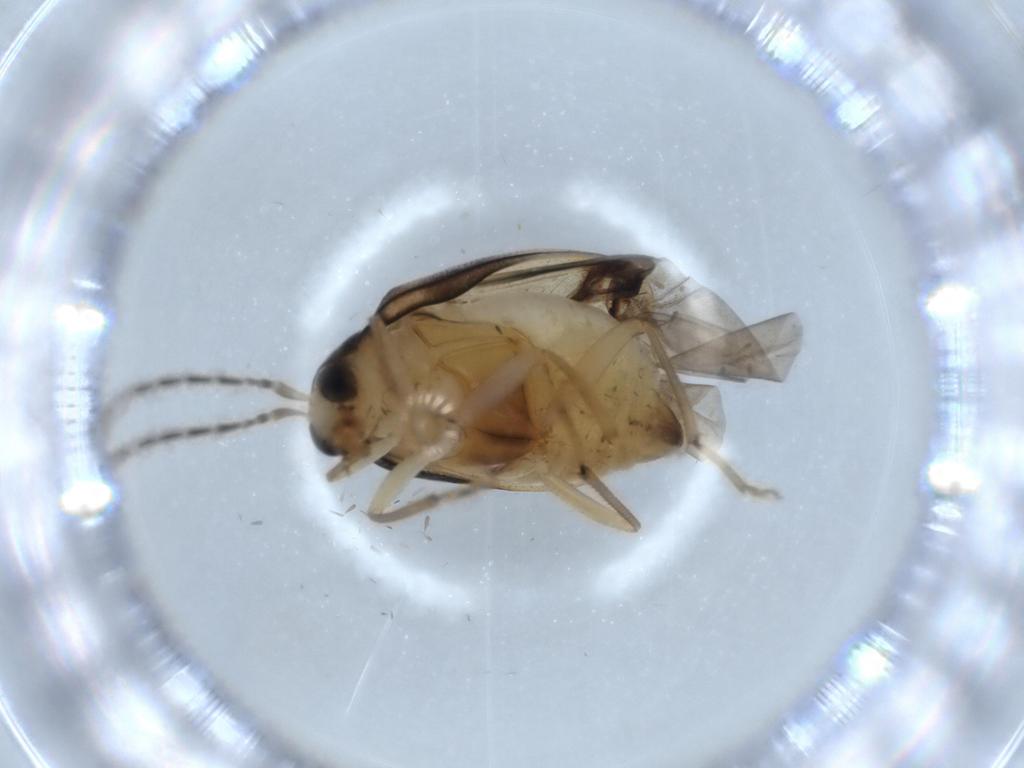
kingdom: Animalia
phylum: Arthropoda
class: Insecta
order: Coleoptera
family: Chrysomelidae
